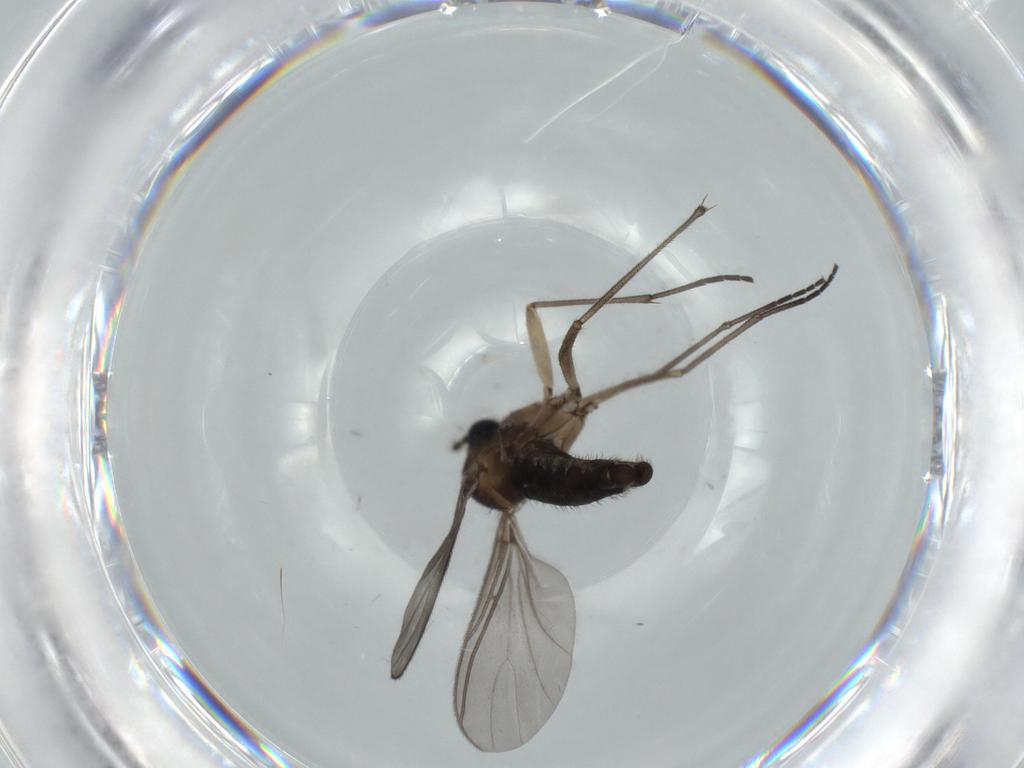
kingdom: Animalia
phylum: Arthropoda
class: Insecta
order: Diptera
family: Sciaridae
